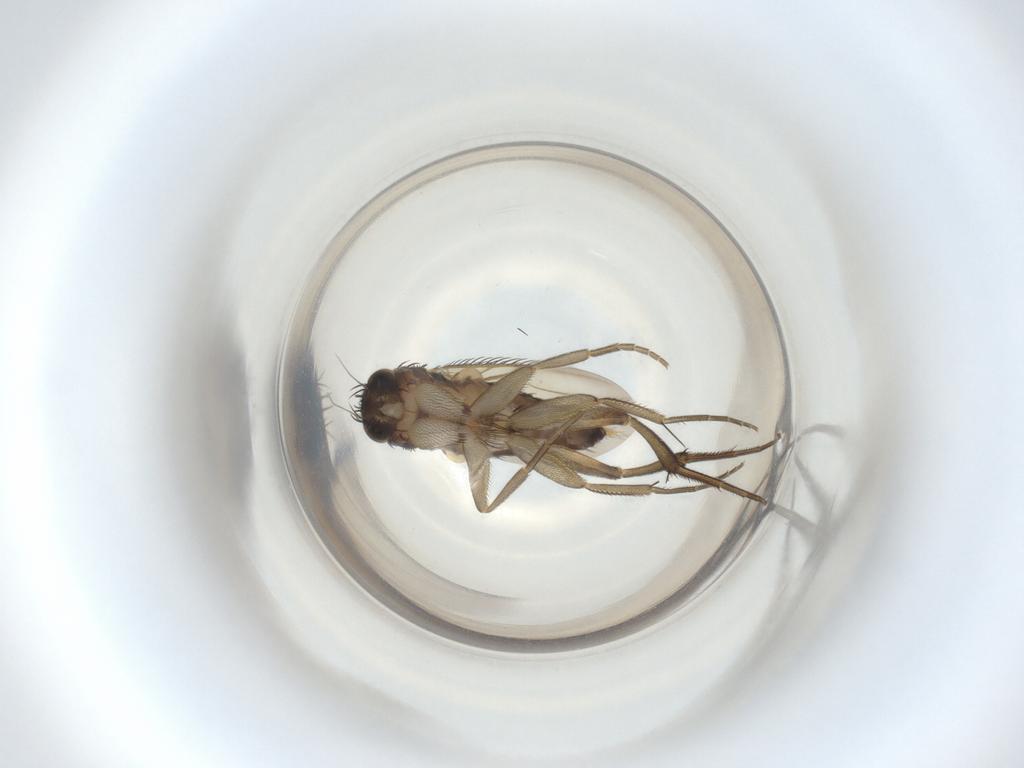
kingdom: Animalia
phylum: Arthropoda
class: Insecta
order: Diptera
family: Phoridae
